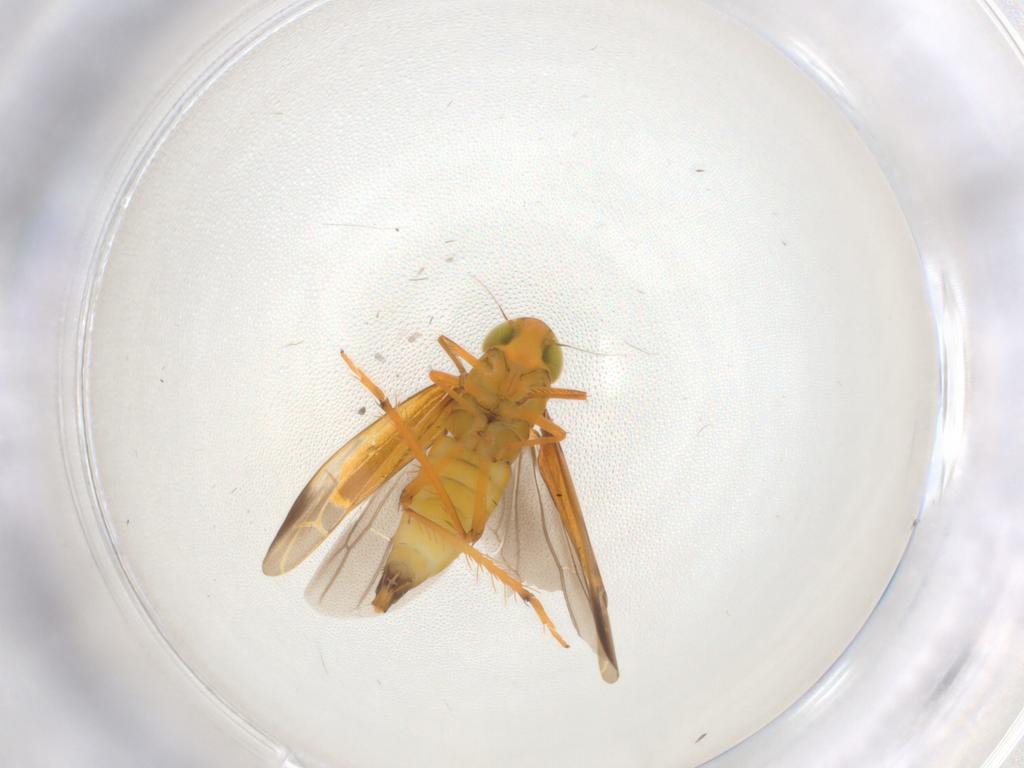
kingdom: Animalia
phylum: Arthropoda
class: Insecta
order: Hemiptera
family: Cicadellidae
